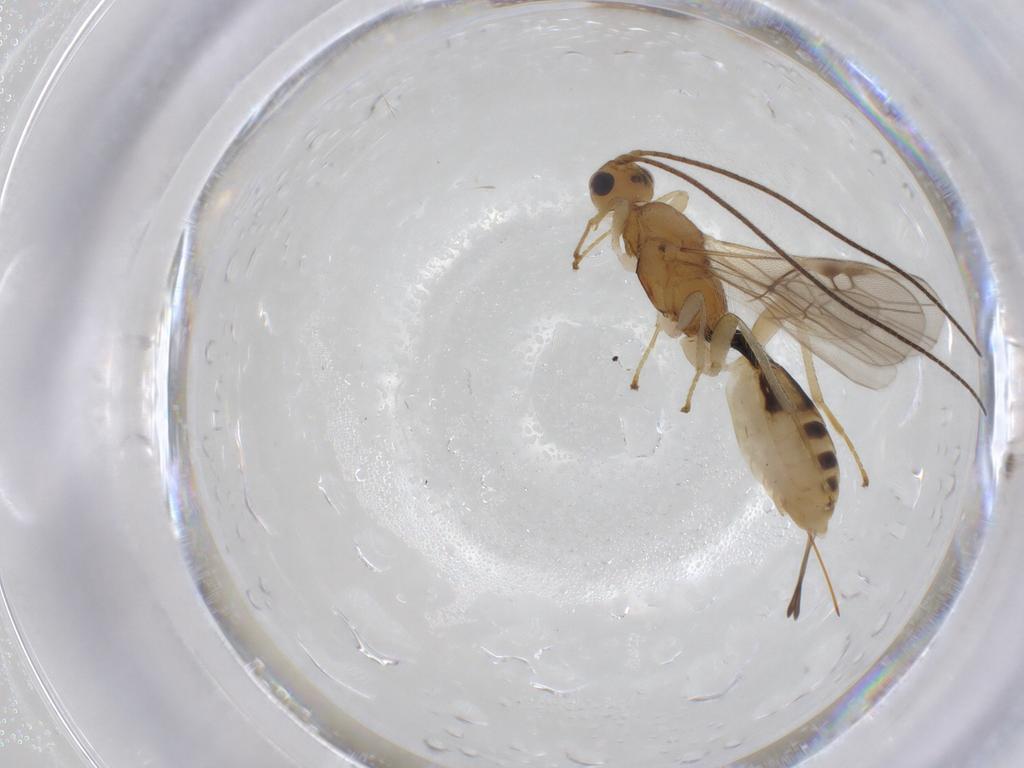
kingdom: Animalia
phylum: Arthropoda
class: Insecta
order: Hymenoptera
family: Braconidae
